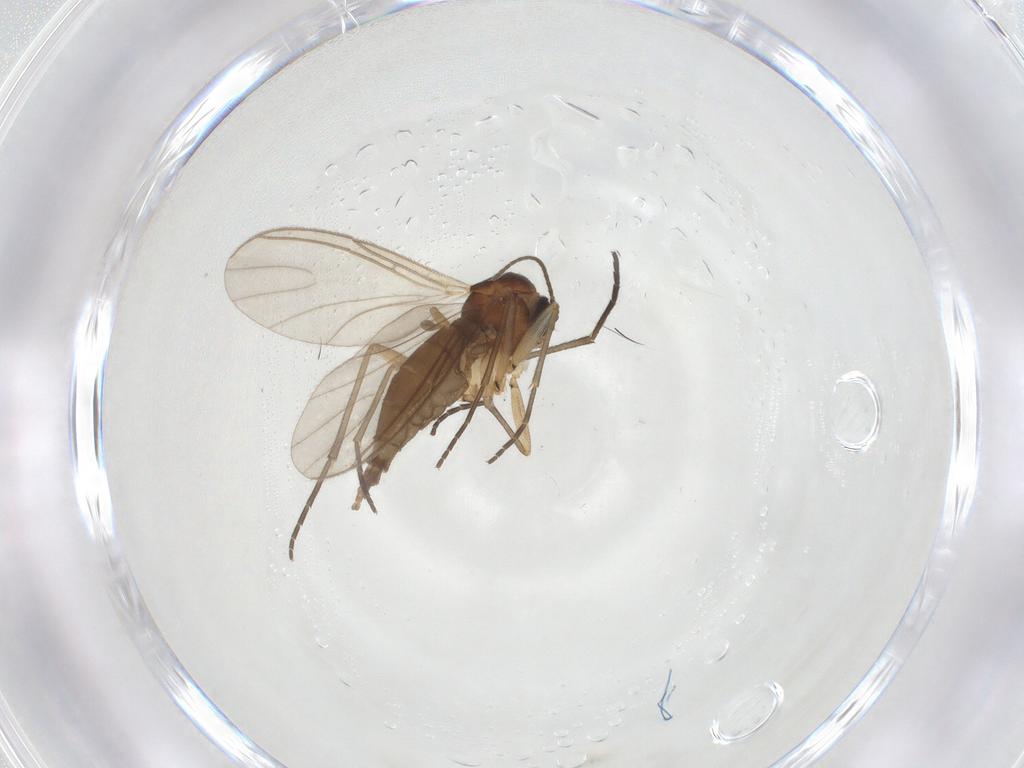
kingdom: Animalia
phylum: Arthropoda
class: Insecta
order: Diptera
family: Sciaridae
